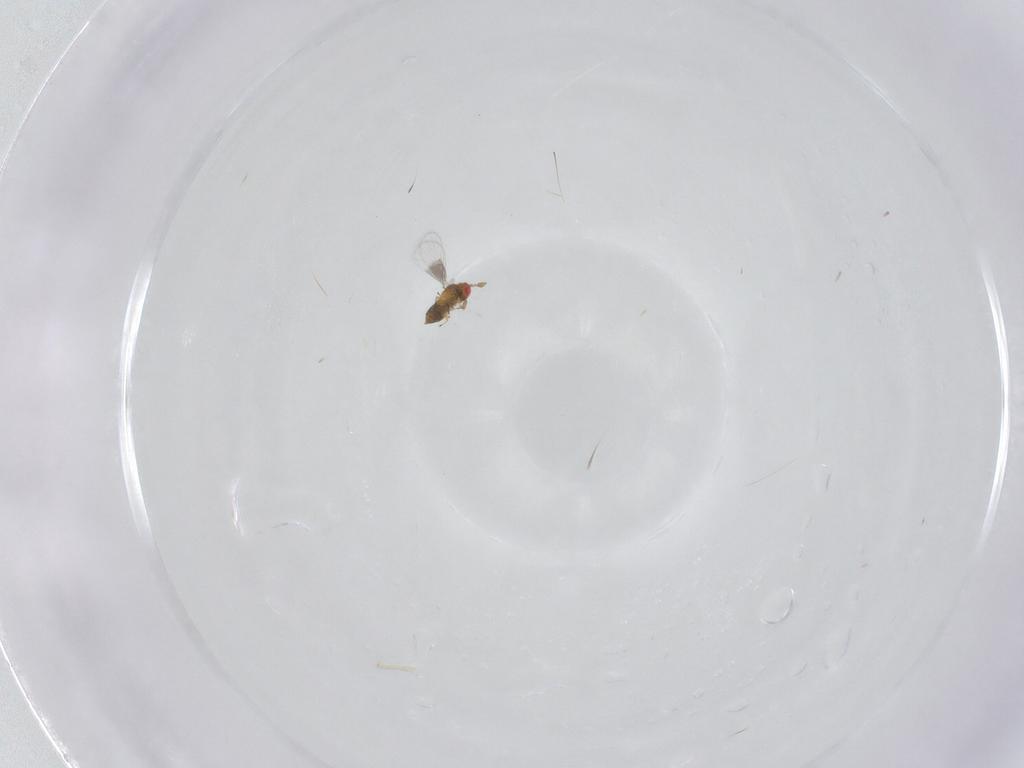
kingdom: Animalia
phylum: Arthropoda
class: Insecta
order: Hymenoptera
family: Trichogrammatidae
